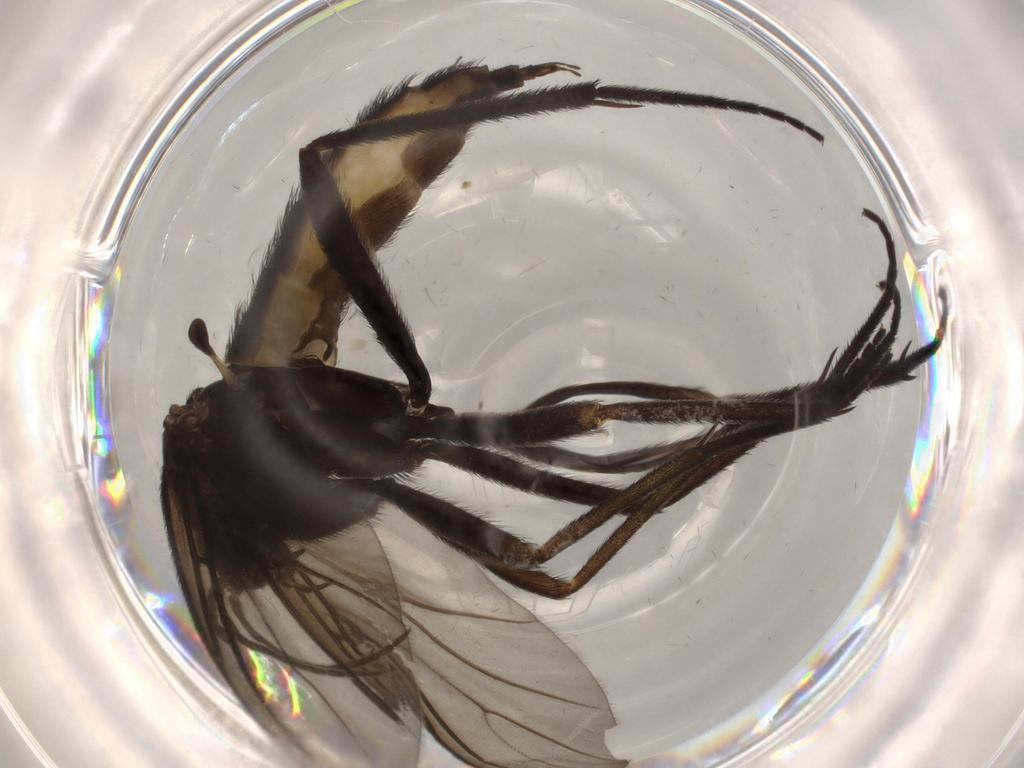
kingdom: Animalia
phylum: Arthropoda
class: Insecta
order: Diptera
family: Sciaridae
